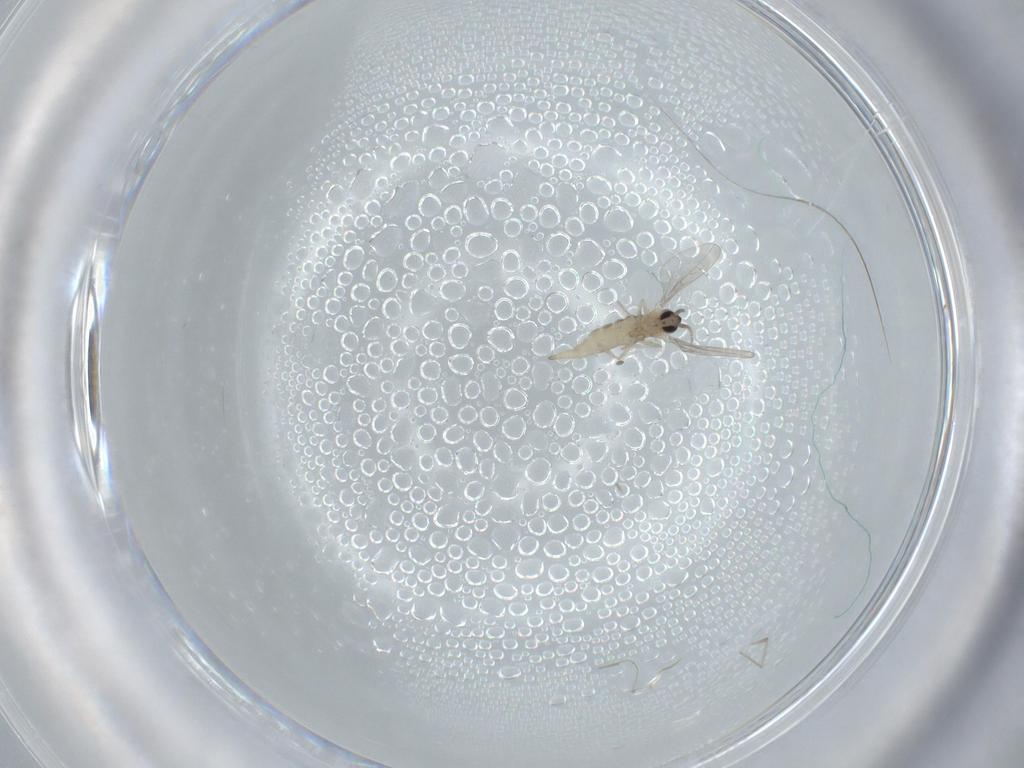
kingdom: Animalia
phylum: Arthropoda
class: Insecta
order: Diptera
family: Cecidomyiidae
